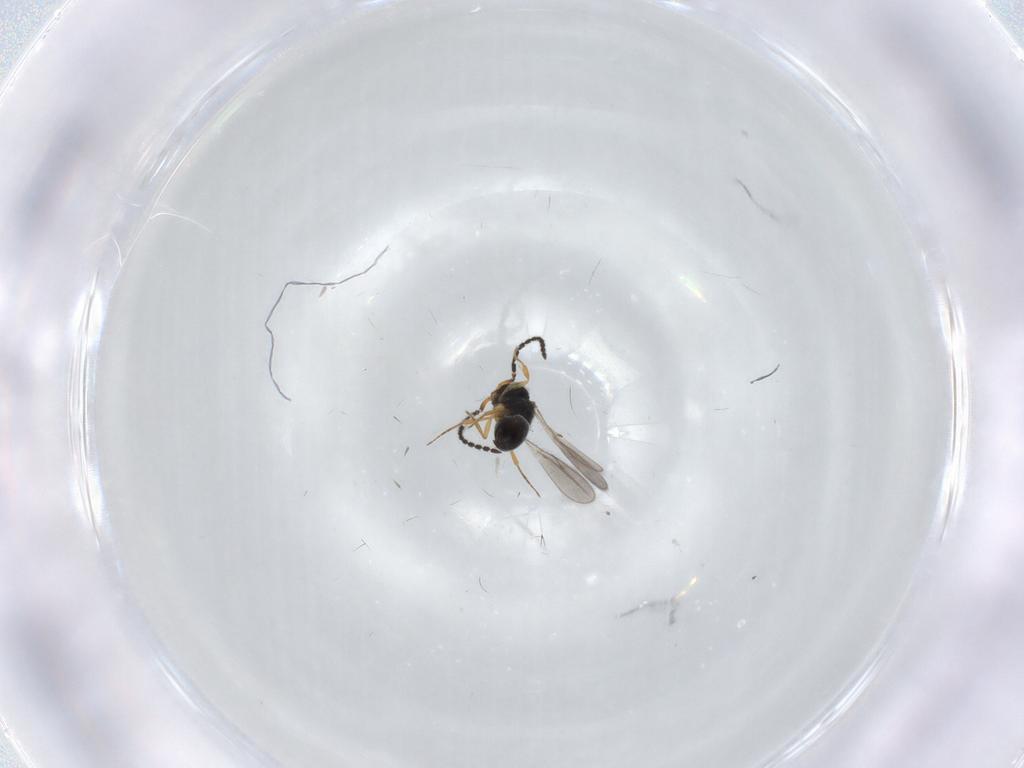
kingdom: Animalia
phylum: Arthropoda
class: Insecta
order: Hymenoptera
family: Scelionidae
